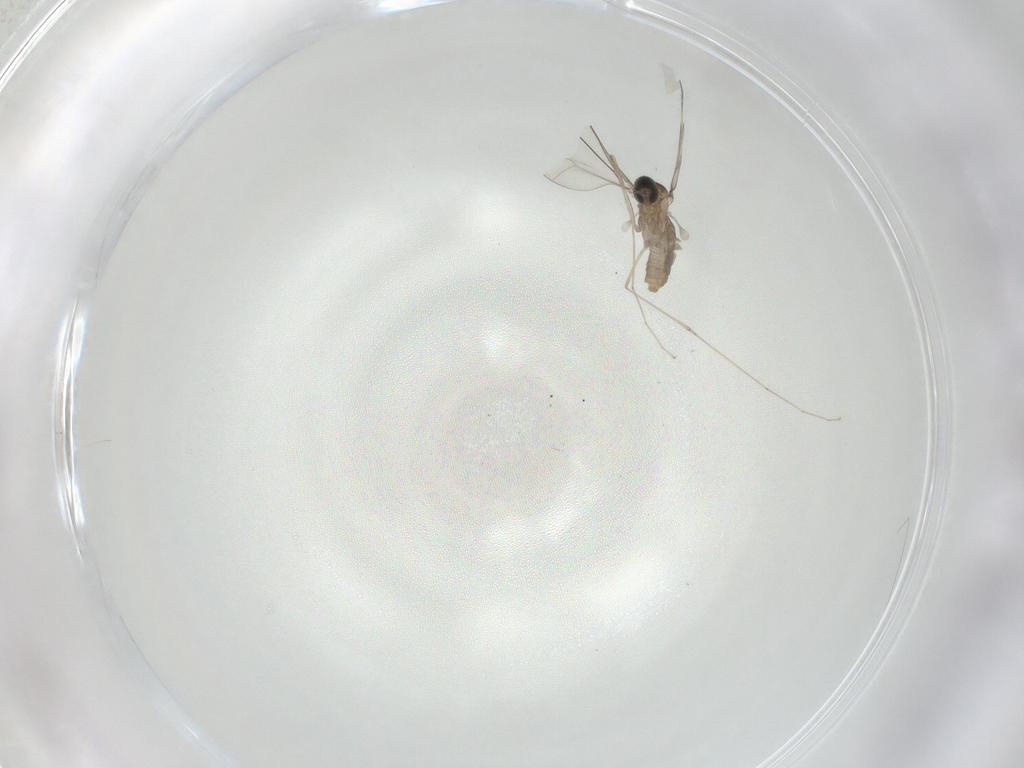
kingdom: Animalia
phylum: Arthropoda
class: Insecta
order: Diptera
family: Cecidomyiidae
